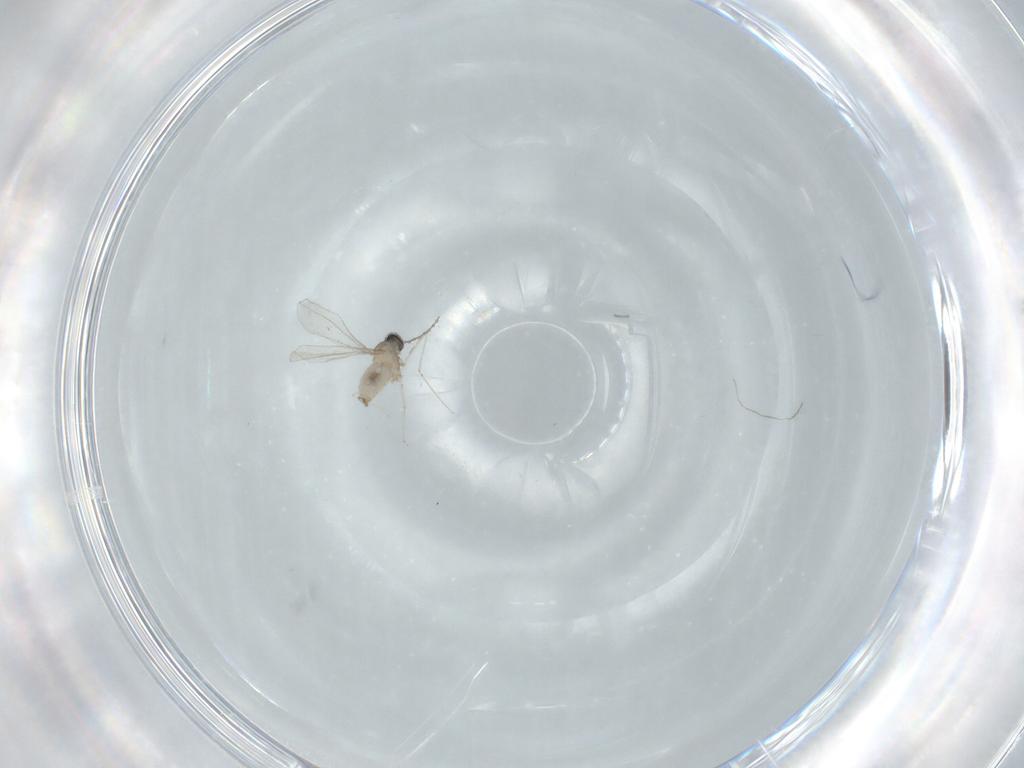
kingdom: Animalia
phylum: Arthropoda
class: Insecta
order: Diptera
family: Cecidomyiidae
